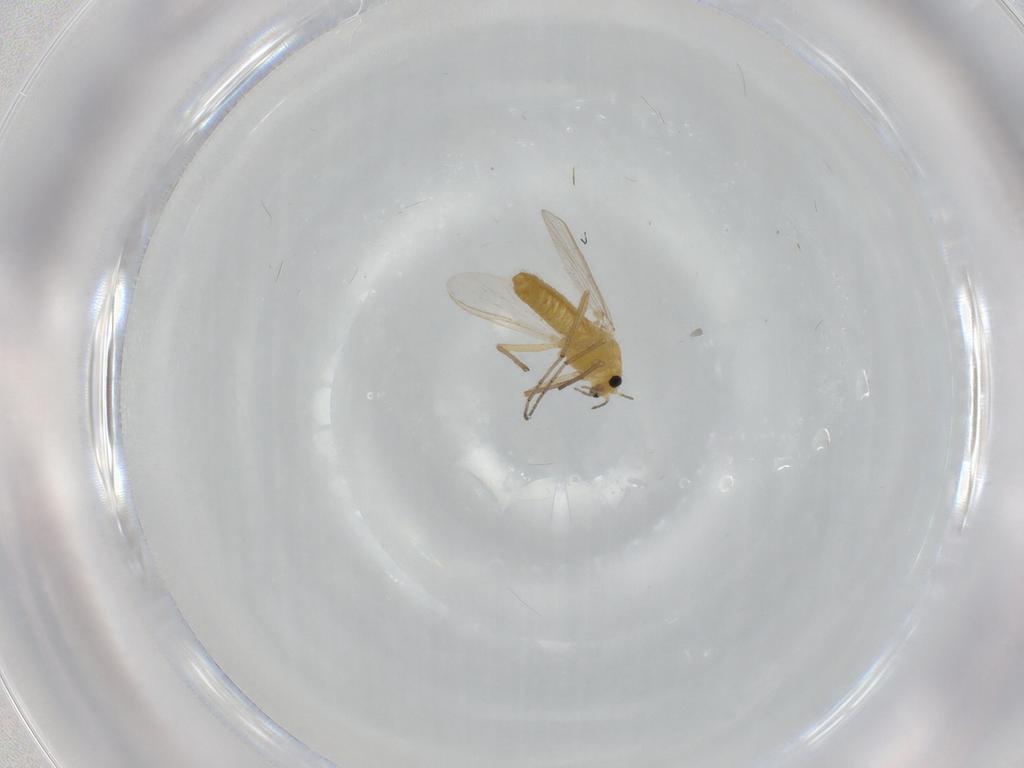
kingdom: Animalia
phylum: Arthropoda
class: Insecta
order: Diptera
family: Chironomidae
